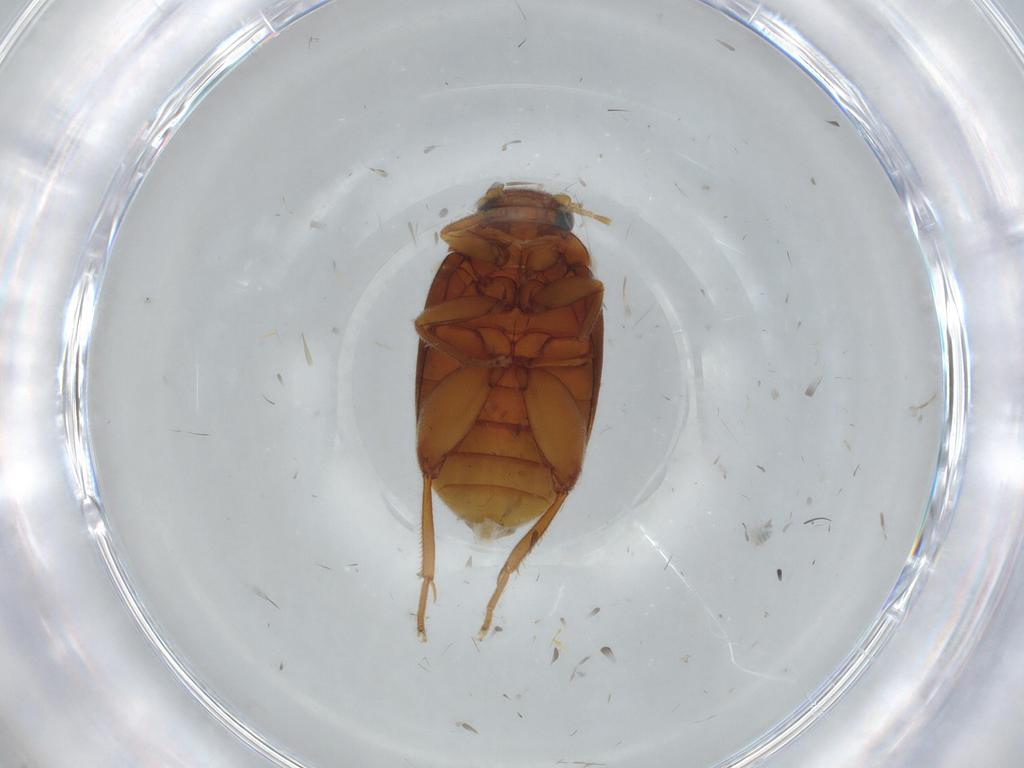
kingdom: Animalia
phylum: Arthropoda
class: Insecta
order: Coleoptera
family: Scirtidae
